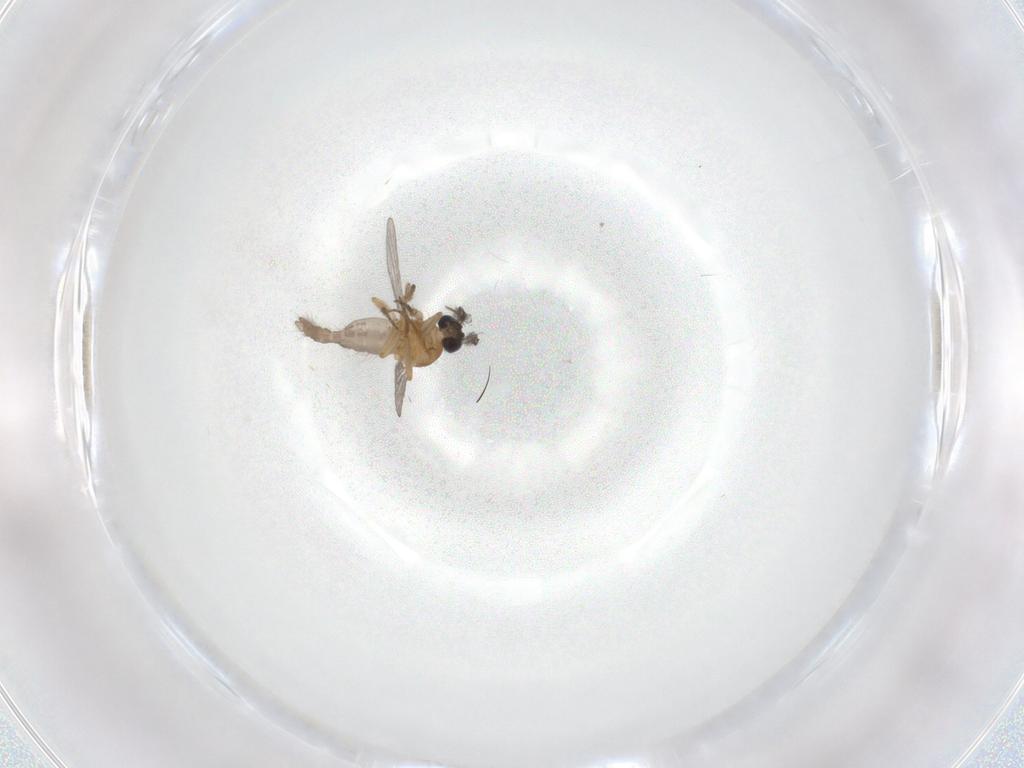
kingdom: Animalia
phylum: Arthropoda
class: Insecta
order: Diptera
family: Ceratopogonidae
